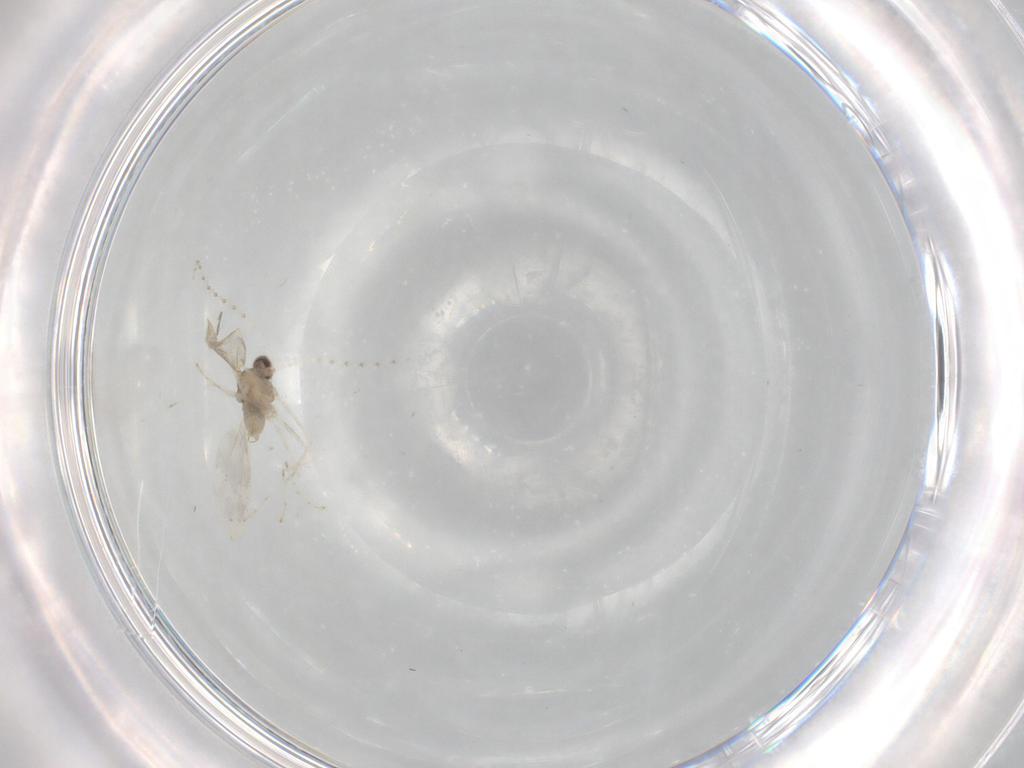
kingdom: Animalia
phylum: Arthropoda
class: Insecta
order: Diptera
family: Cecidomyiidae
